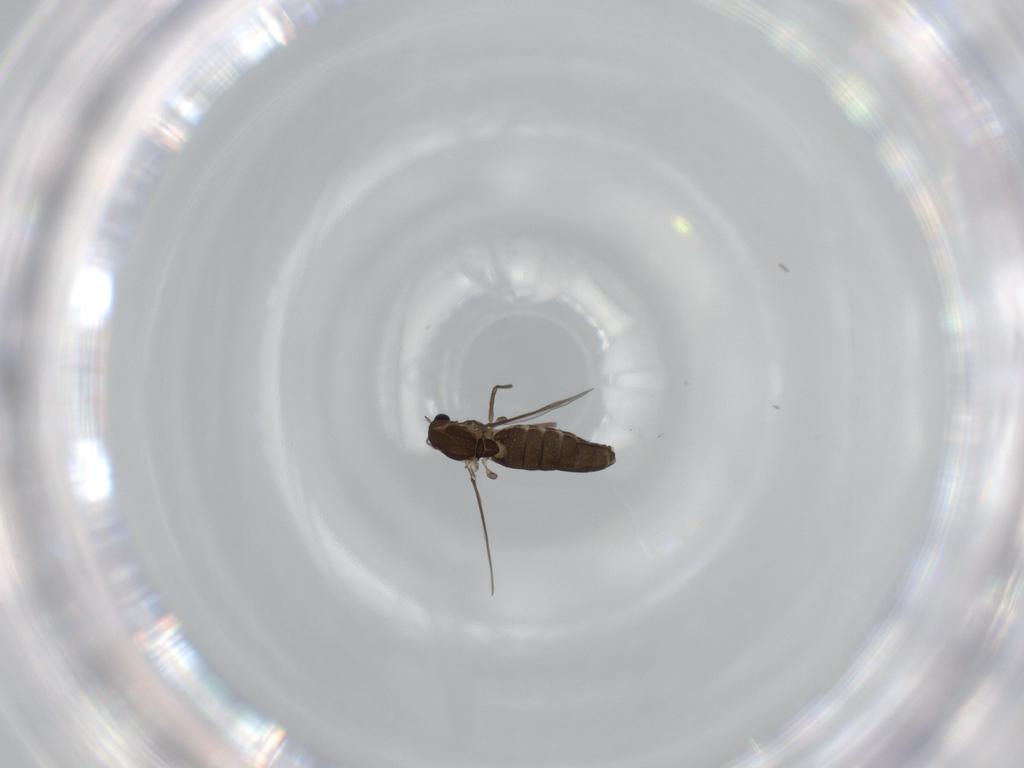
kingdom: Animalia
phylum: Arthropoda
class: Insecta
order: Diptera
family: Chironomidae
